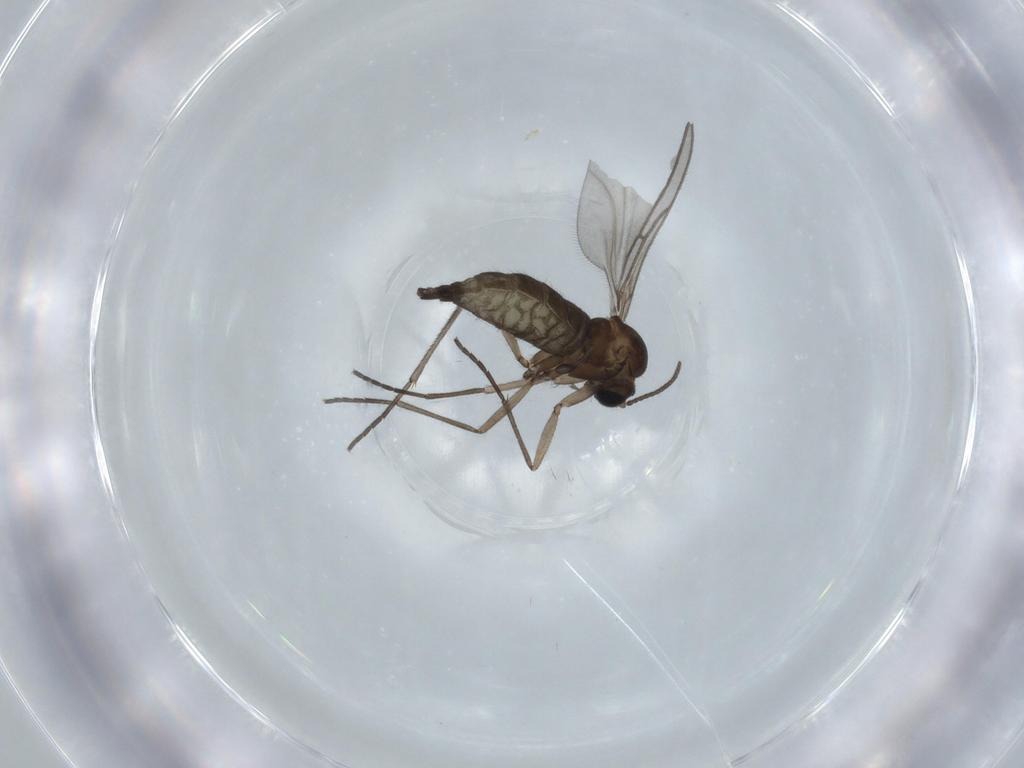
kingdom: Animalia
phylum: Arthropoda
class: Insecta
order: Diptera
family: Sciaridae
